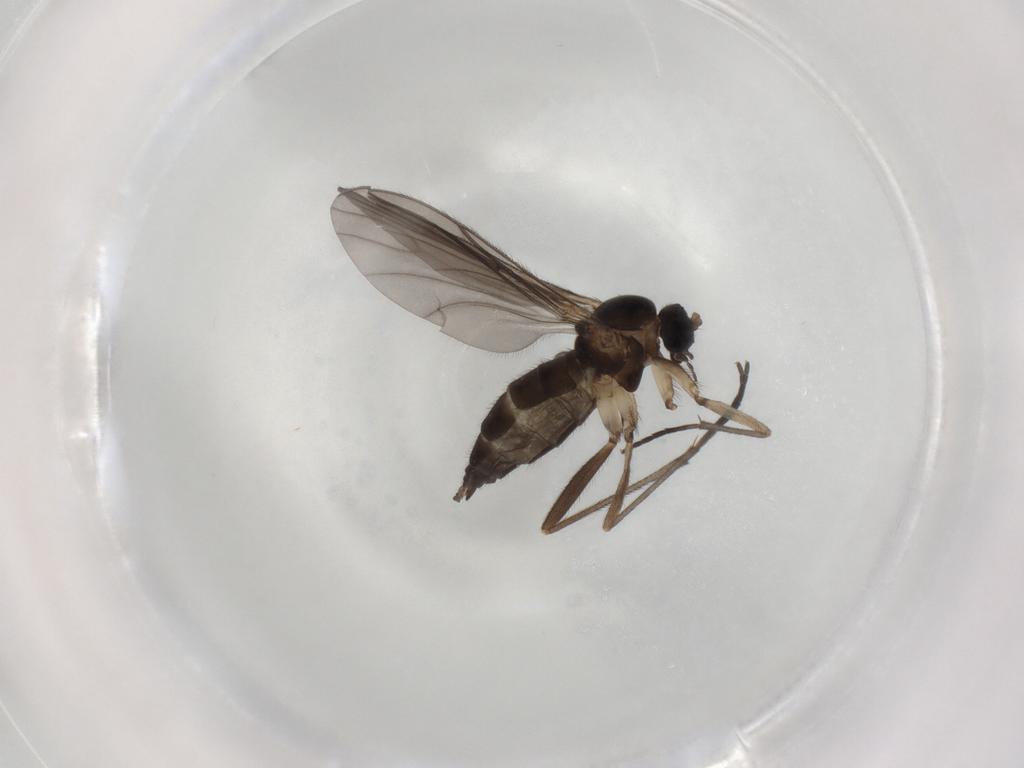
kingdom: Animalia
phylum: Arthropoda
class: Insecta
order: Diptera
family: Sciaridae
